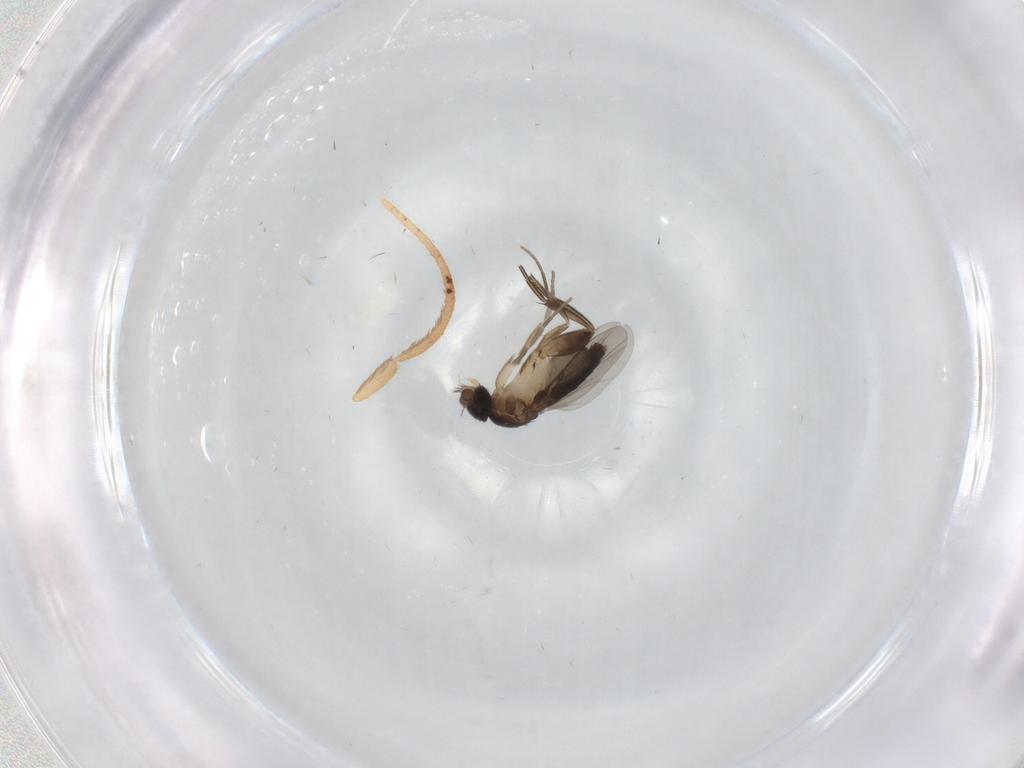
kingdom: Animalia
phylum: Arthropoda
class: Insecta
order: Diptera
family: Phoridae
